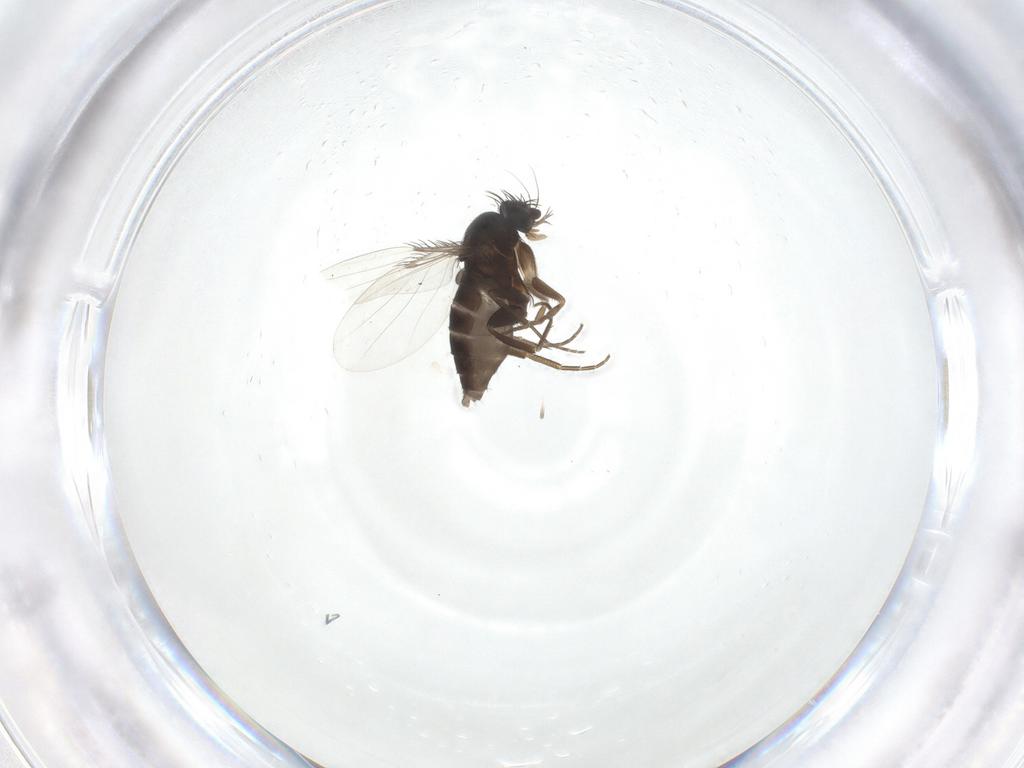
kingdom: Animalia
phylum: Arthropoda
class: Insecta
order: Diptera
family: Phoridae
